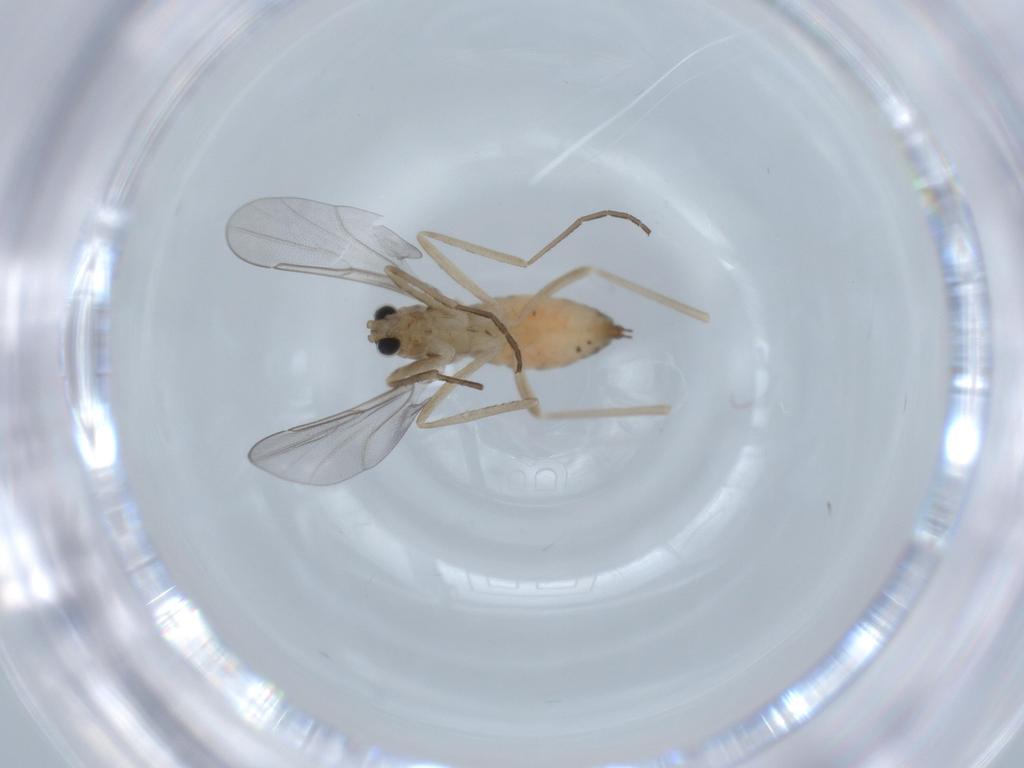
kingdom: Animalia
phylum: Arthropoda
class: Insecta
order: Diptera
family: Cecidomyiidae
